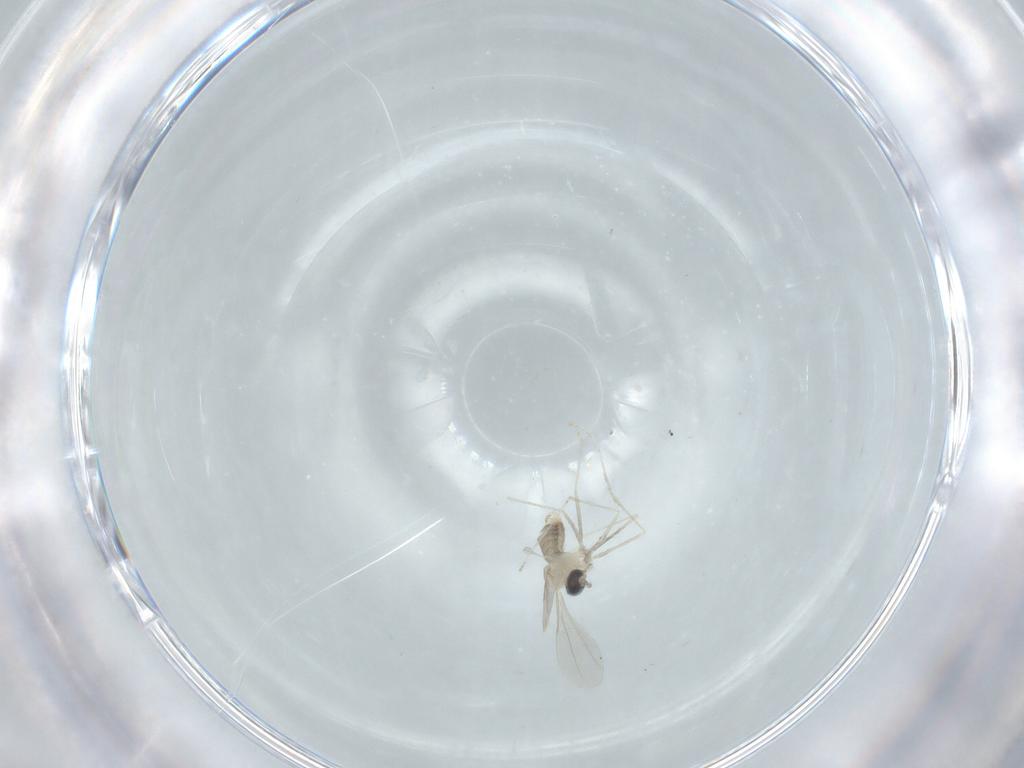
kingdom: Animalia
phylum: Arthropoda
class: Insecta
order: Diptera
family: Cecidomyiidae
